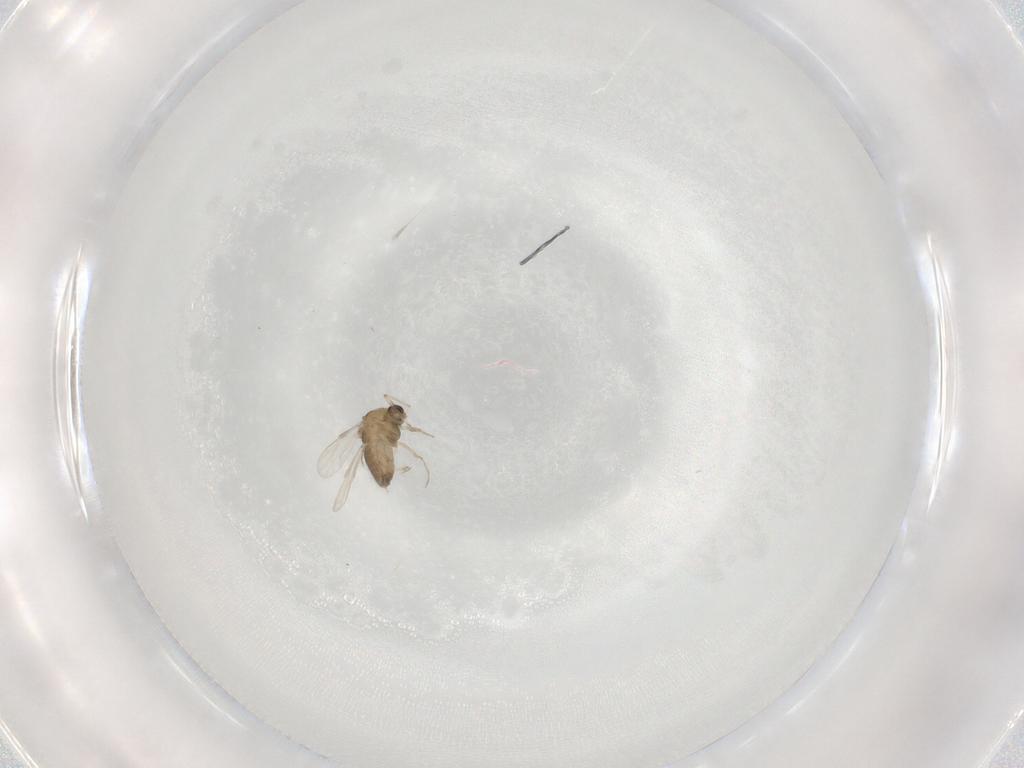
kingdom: Animalia
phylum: Arthropoda
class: Insecta
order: Diptera
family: Chironomidae
